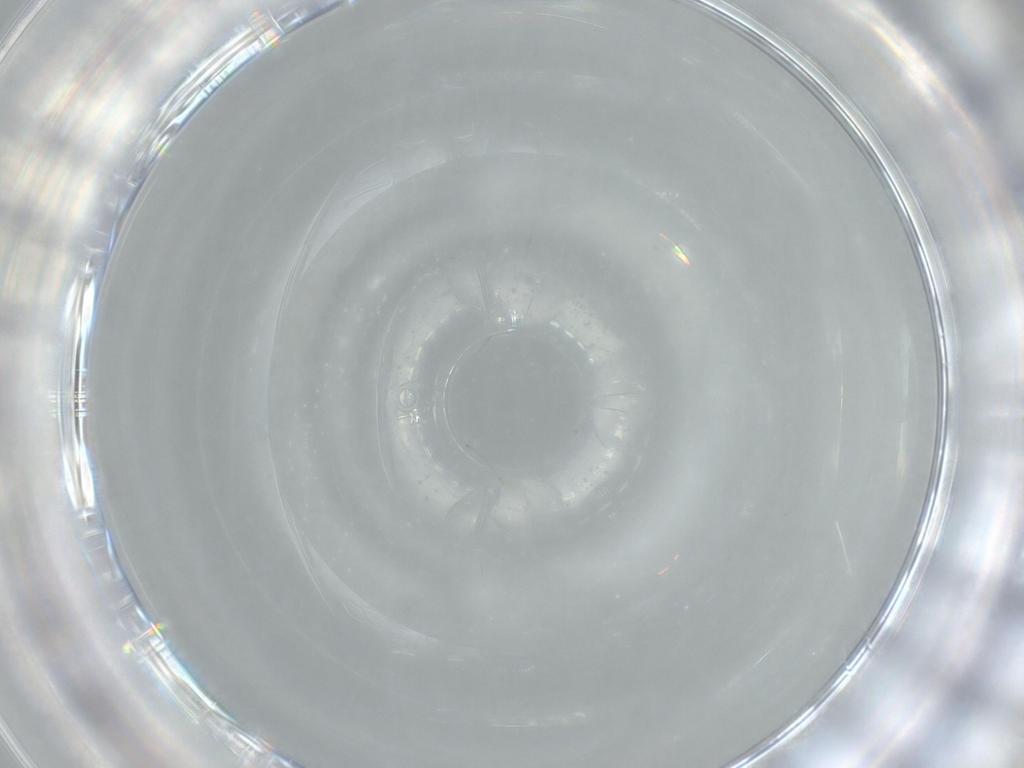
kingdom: Animalia
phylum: Arthropoda
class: Insecta
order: Diptera
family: Cecidomyiidae
